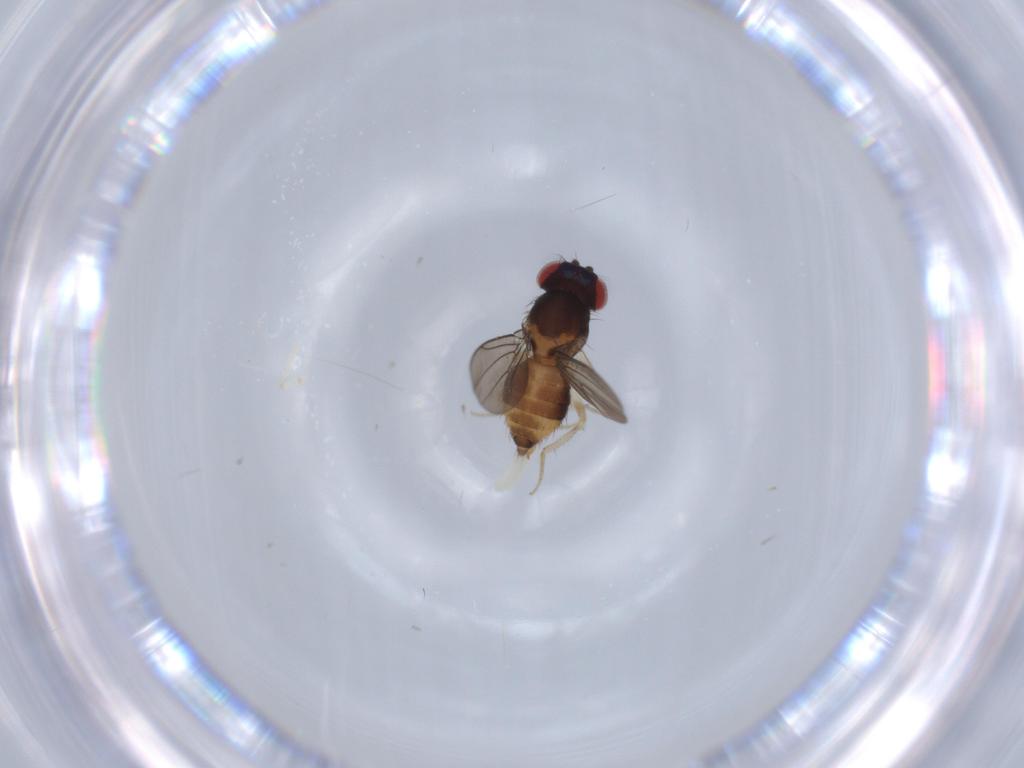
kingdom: Animalia
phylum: Arthropoda
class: Insecta
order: Diptera
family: Drosophilidae
